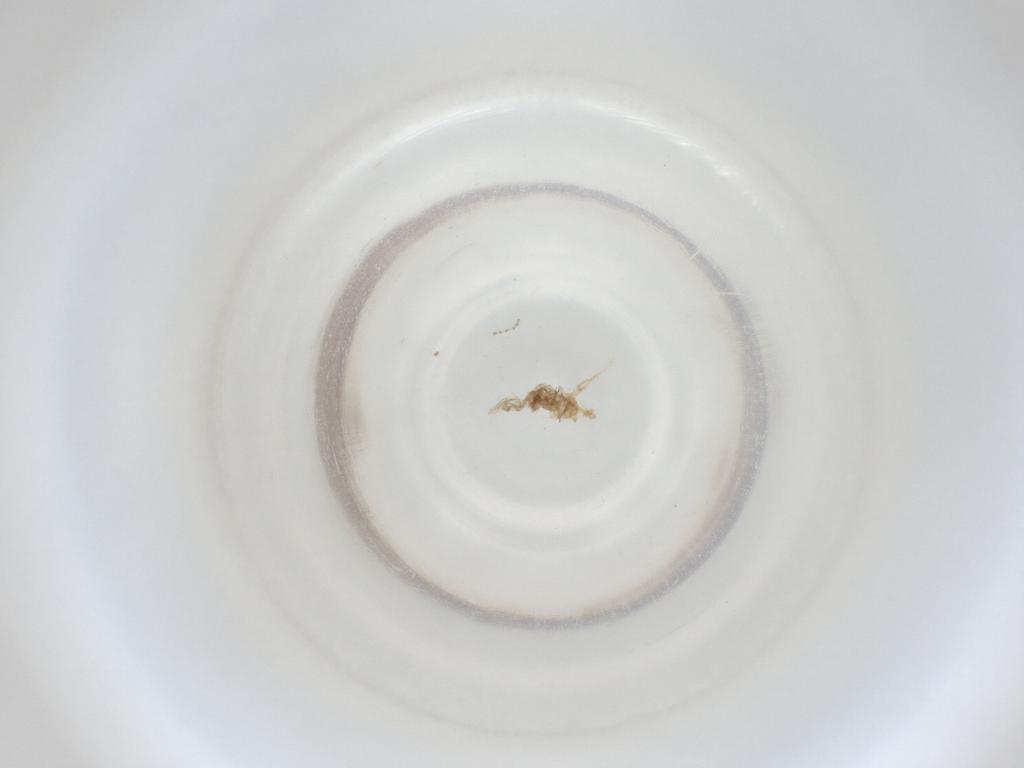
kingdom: Animalia
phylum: Arthropoda
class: Insecta
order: Diptera
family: Cecidomyiidae
